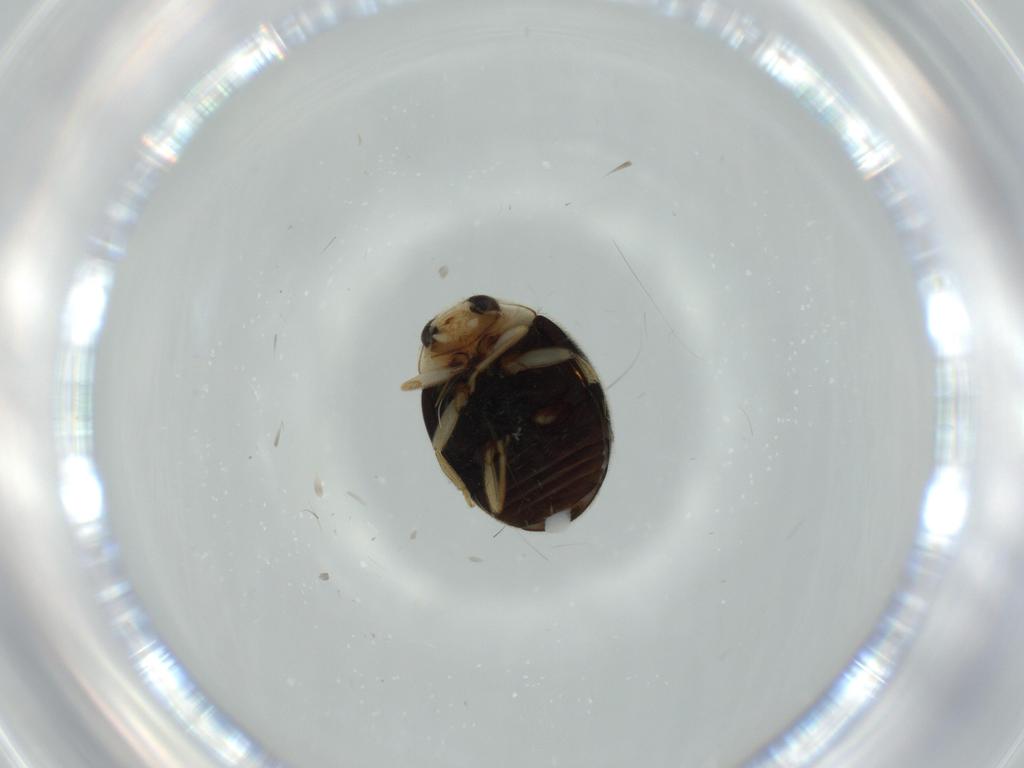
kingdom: Animalia
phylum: Arthropoda
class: Insecta
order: Coleoptera
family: Coccinellidae
